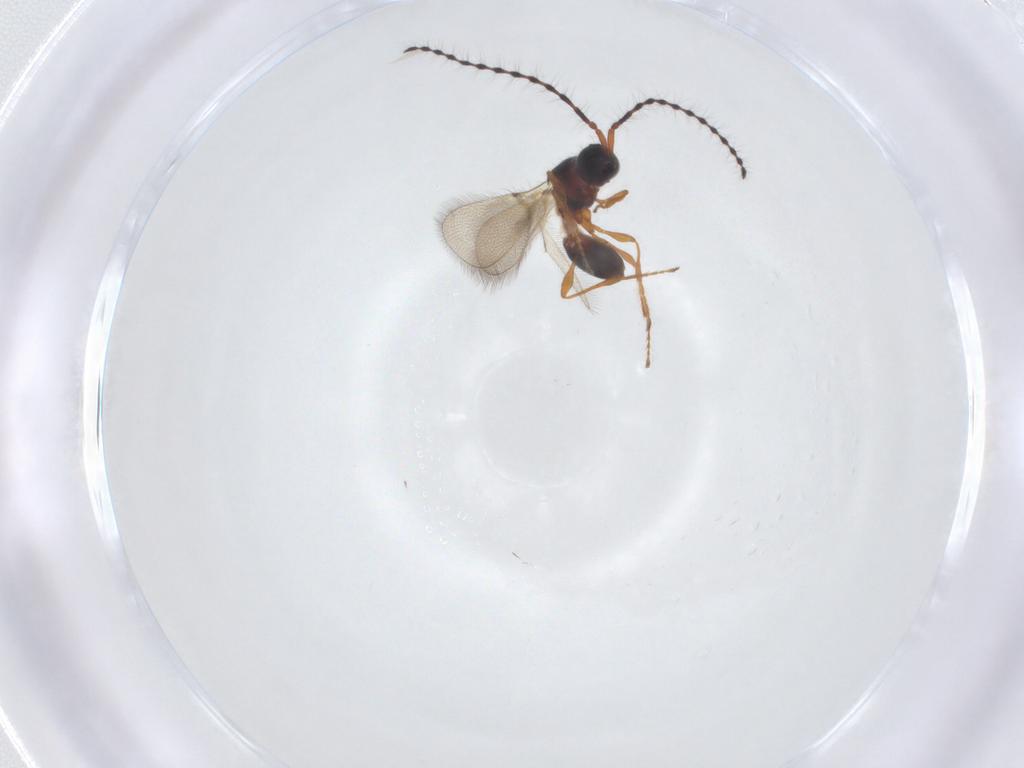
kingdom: Animalia
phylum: Arthropoda
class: Insecta
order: Hymenoptera
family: Diapriidae
